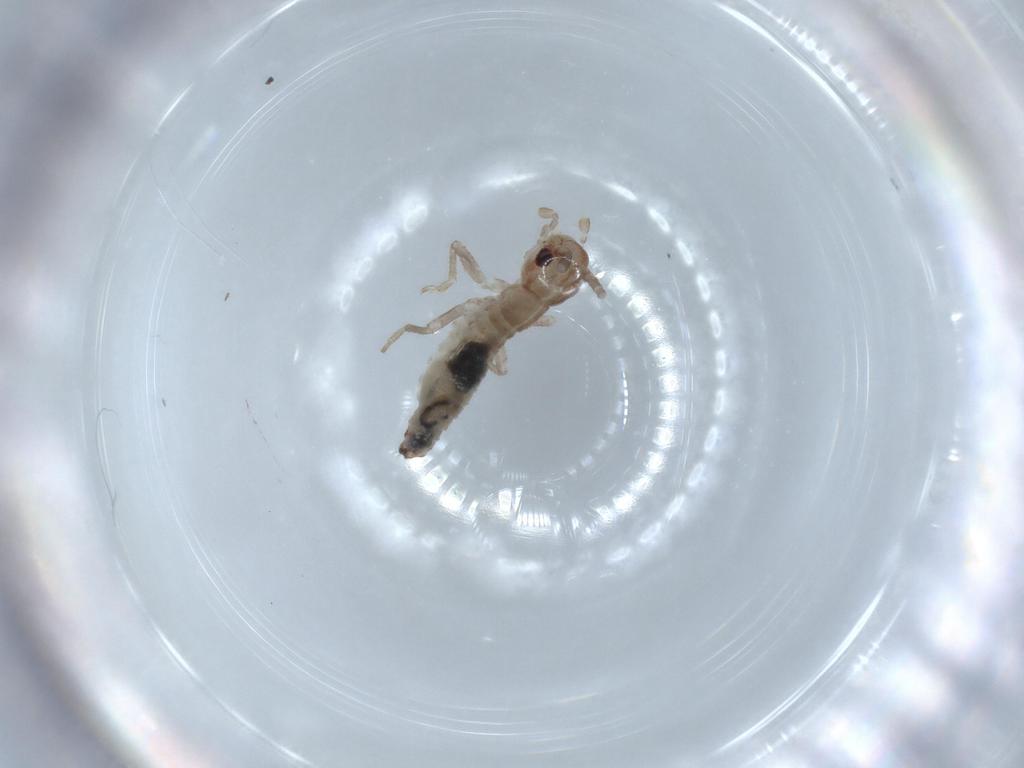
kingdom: Animalia
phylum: Arthropoda
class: Insecta
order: Orthoptera
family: Mogoplistidae
